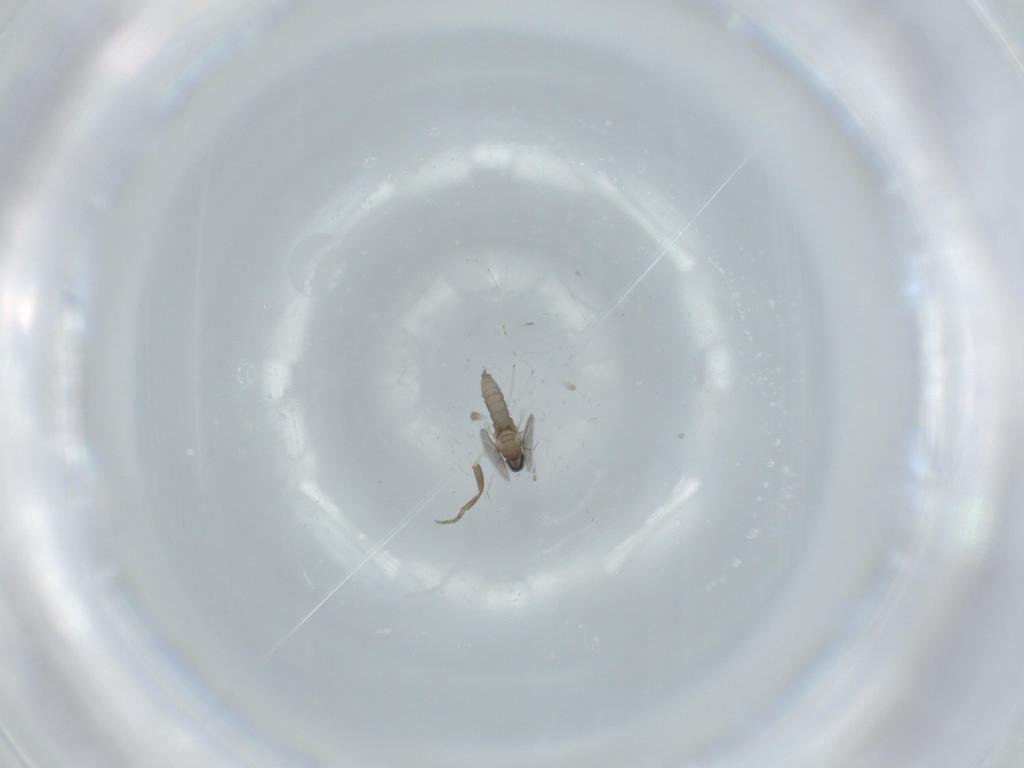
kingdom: Animalia
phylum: Arthropoda
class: Insecta
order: Diptera
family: Cecidomyiidae
